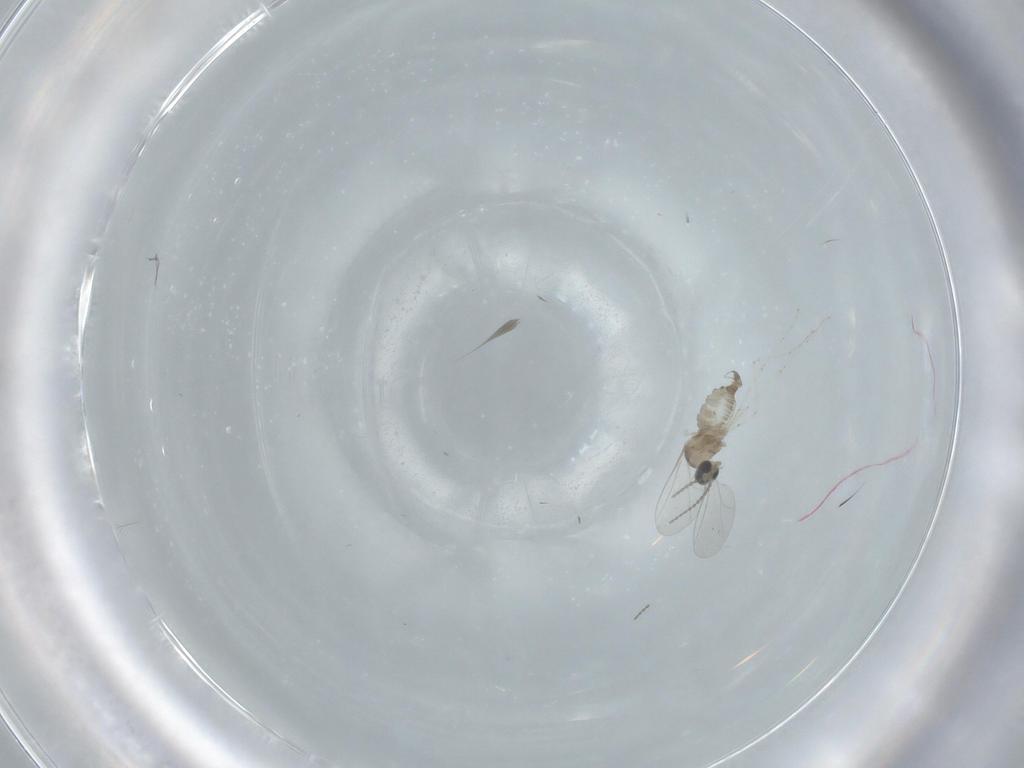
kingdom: Animalia
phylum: Arthropoda
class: Insecta
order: Diptera
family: Cecidomyiidae
